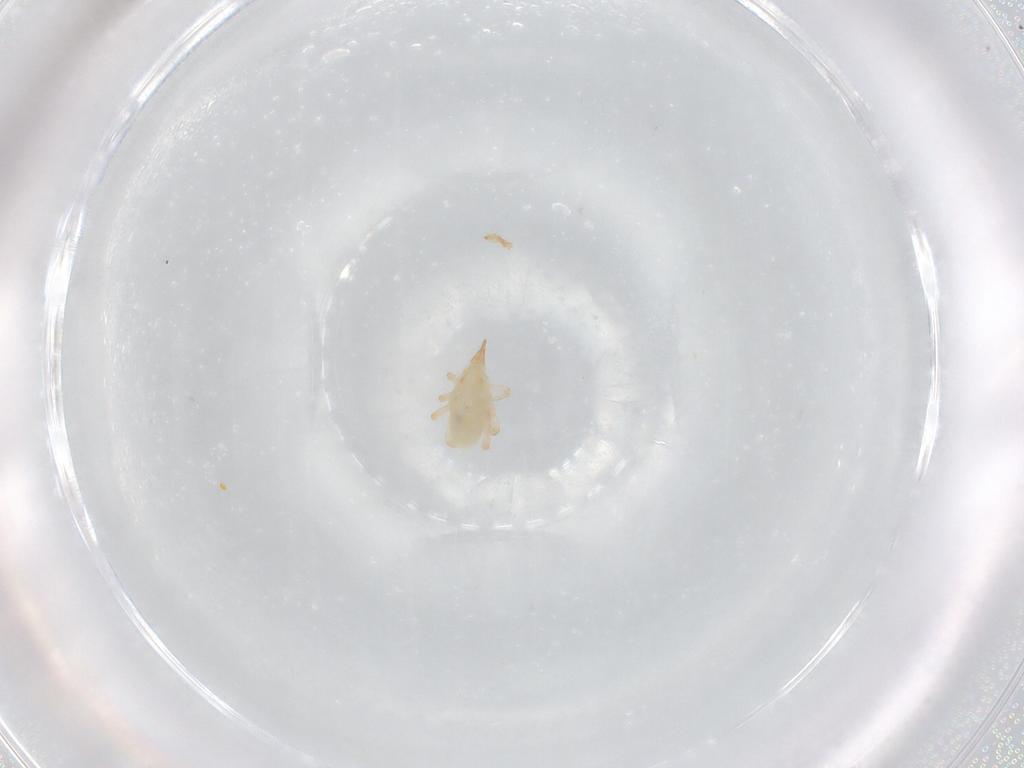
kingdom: Animalia
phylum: Arthropoda
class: Arachnida
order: Trombidiformes
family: Bdellidae
